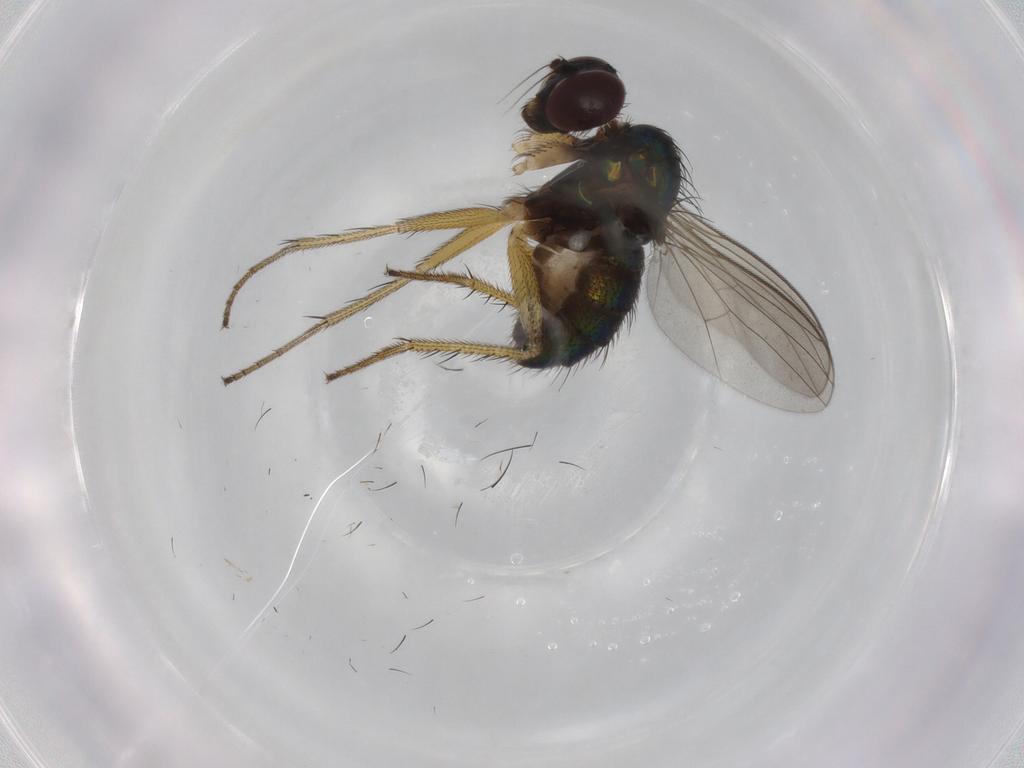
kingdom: Animalia
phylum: Arthropoda
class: Insecta
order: Diptera
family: Dolichopodidae
